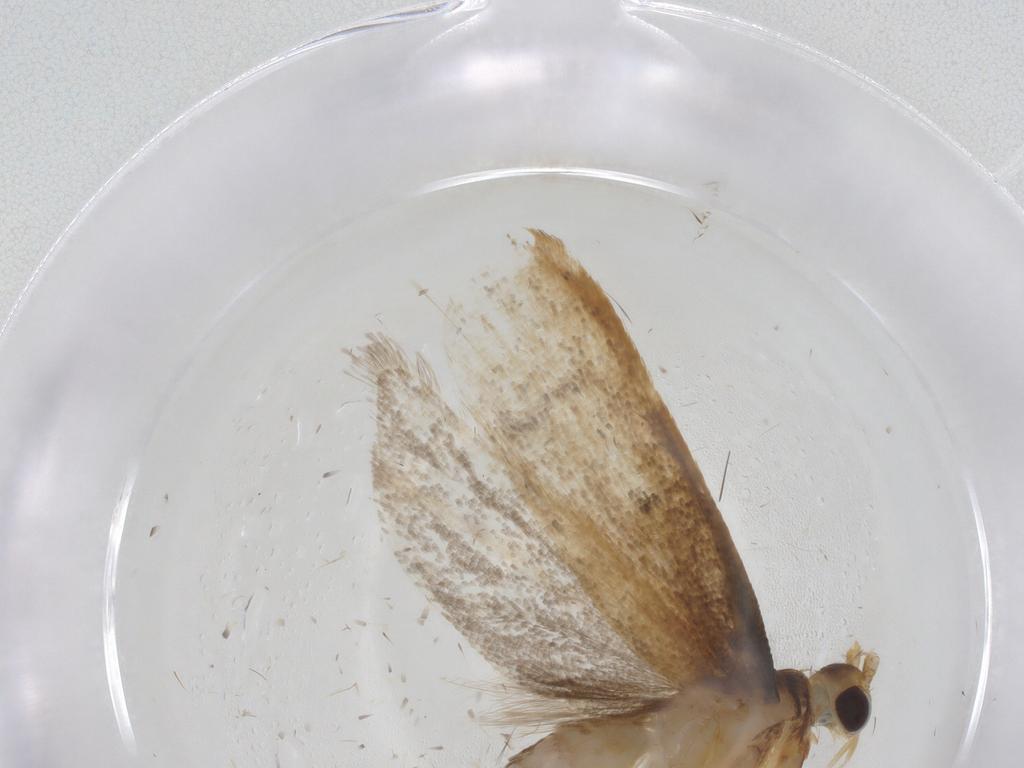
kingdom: Animalia
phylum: Arthropoda
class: Insecta
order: Lepidoptera
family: Lecithoceridae
